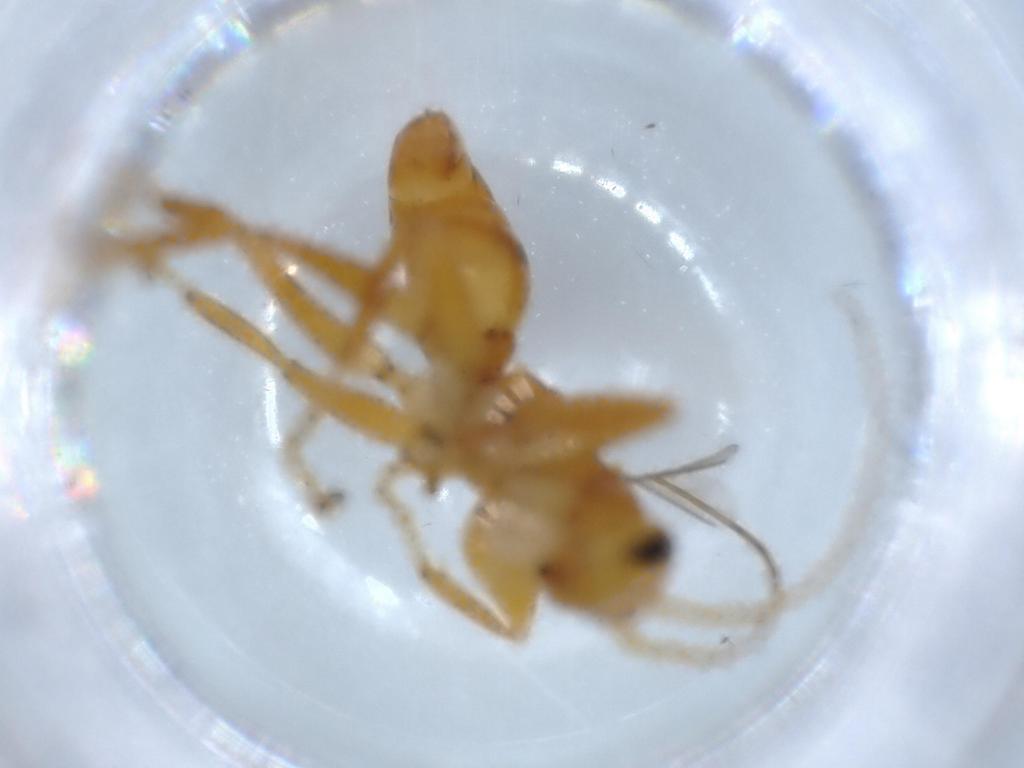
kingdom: Animalia
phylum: Arthropoda
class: Insecta
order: Hymenoptera
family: Rhopalosomatidae
